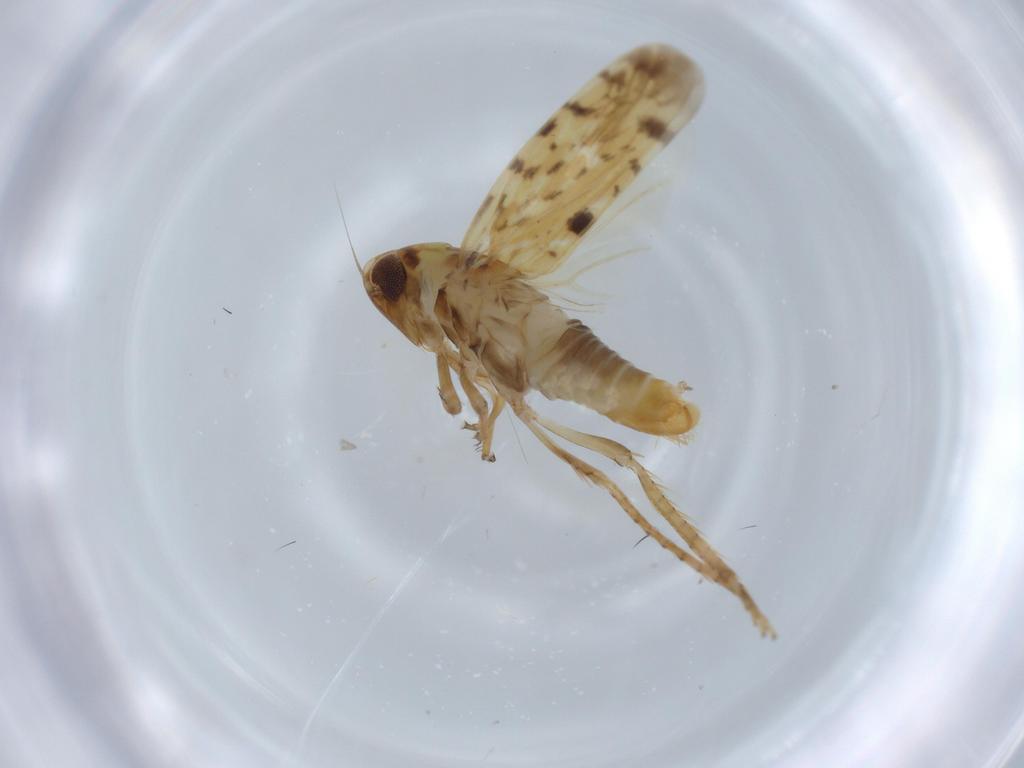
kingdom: Animalia
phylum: Arthropoda
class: Insecta
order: Hemiptera
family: Cicadellidae
